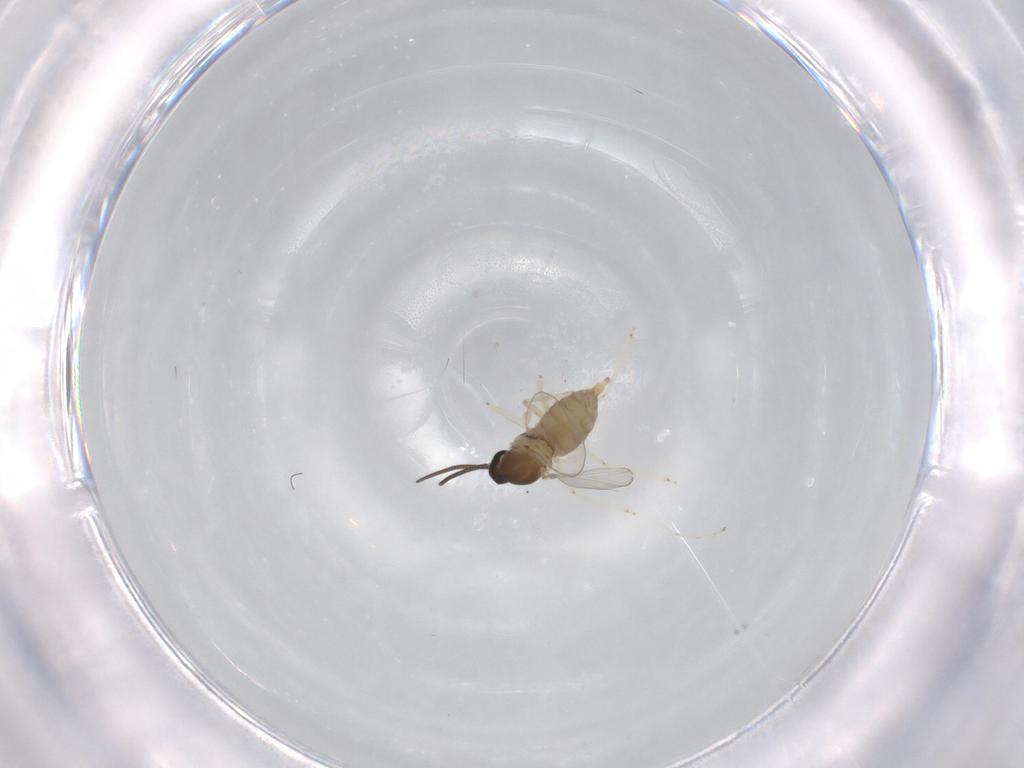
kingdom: Animalia
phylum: Arthropoda
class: Insecta
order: Diptera
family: Cecidomyiidae
